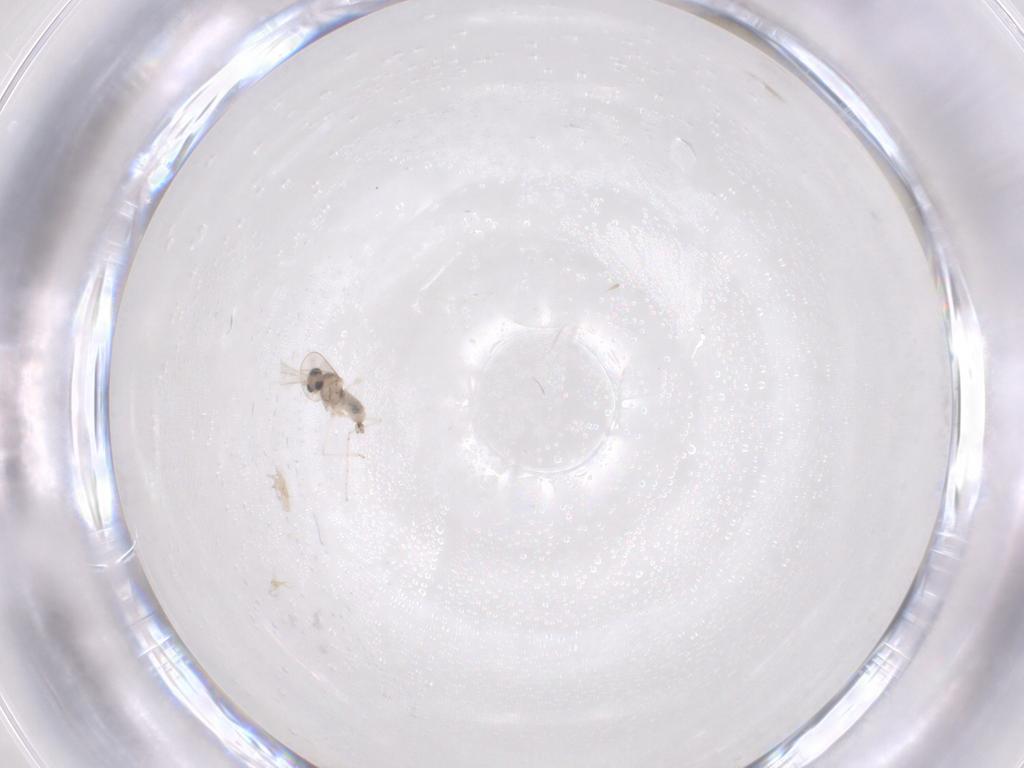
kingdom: Animalia
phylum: Arthropoda
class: Insecta
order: Diptera
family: Cecidomyiidae
